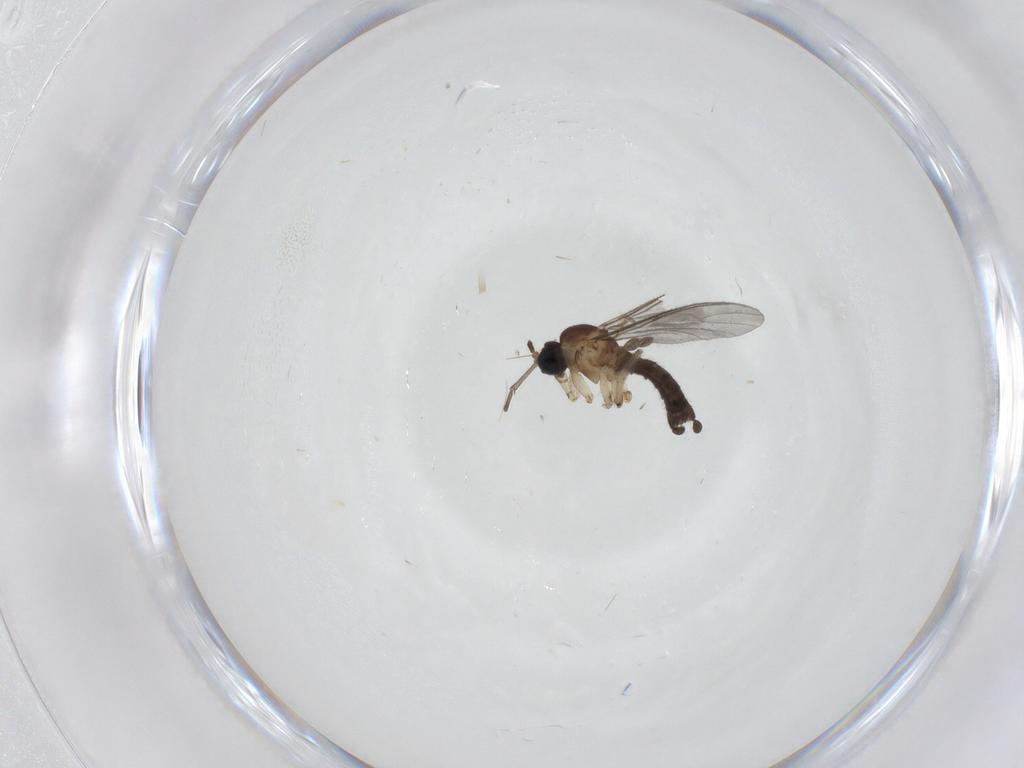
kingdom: Animalia
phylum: Arthropoda
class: Insecta
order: Diptera
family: Sciaridae
